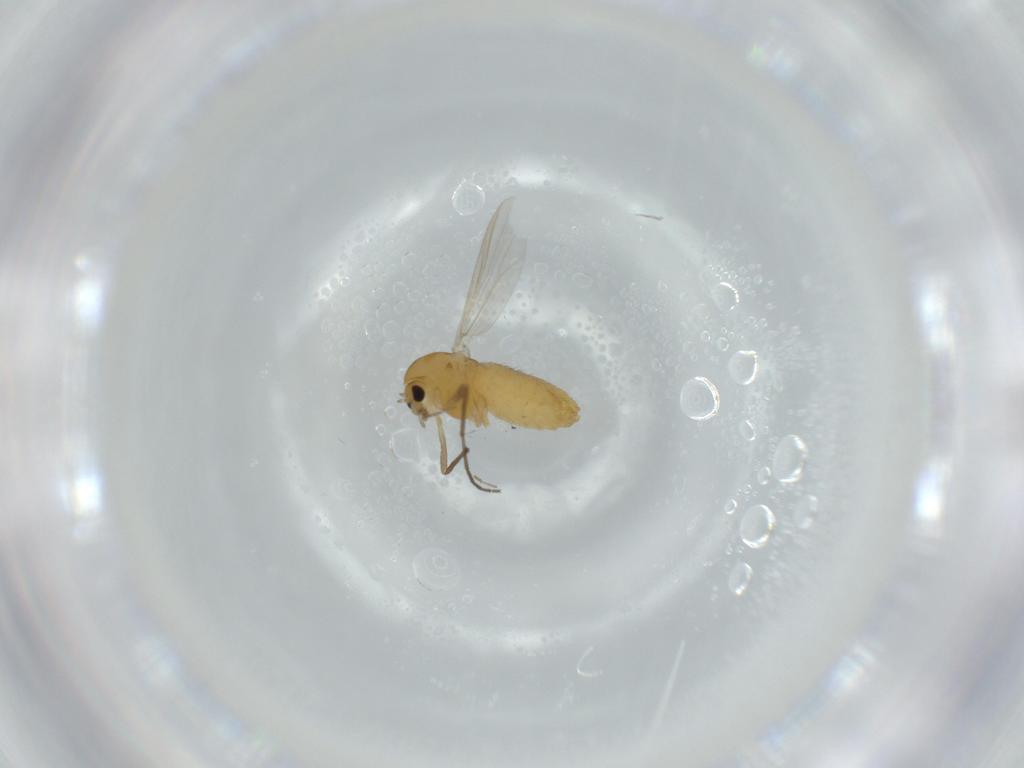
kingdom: Animalia
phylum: Arthropoda
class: Insecta
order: Diptera
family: Chironomidae
